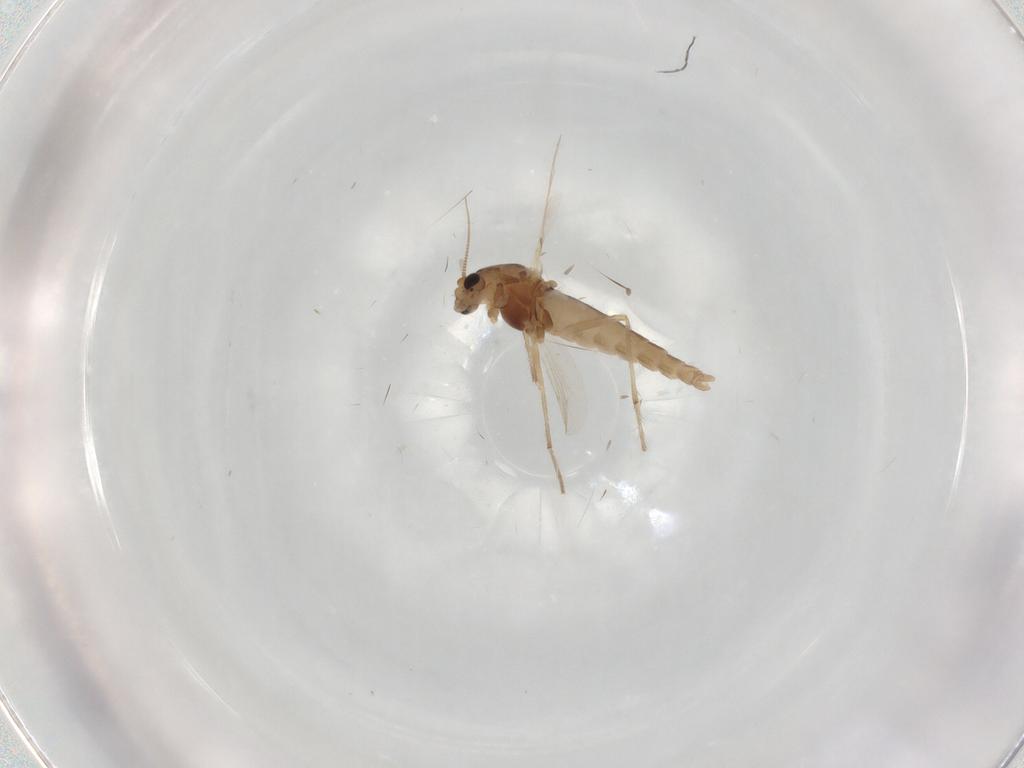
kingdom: Animalia
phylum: Arthropoda
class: Insecta
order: Diptera
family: Chironomidae
